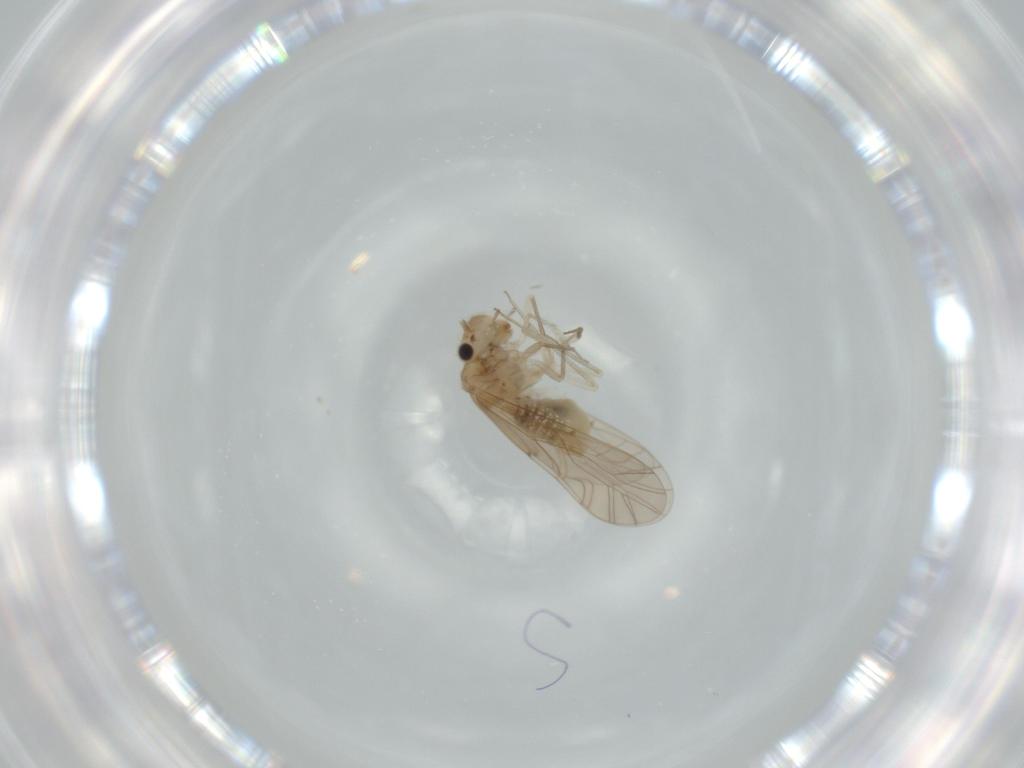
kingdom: Animalia
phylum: Arthropoda
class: Insecta
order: Psocodea
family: Lachesillidae
